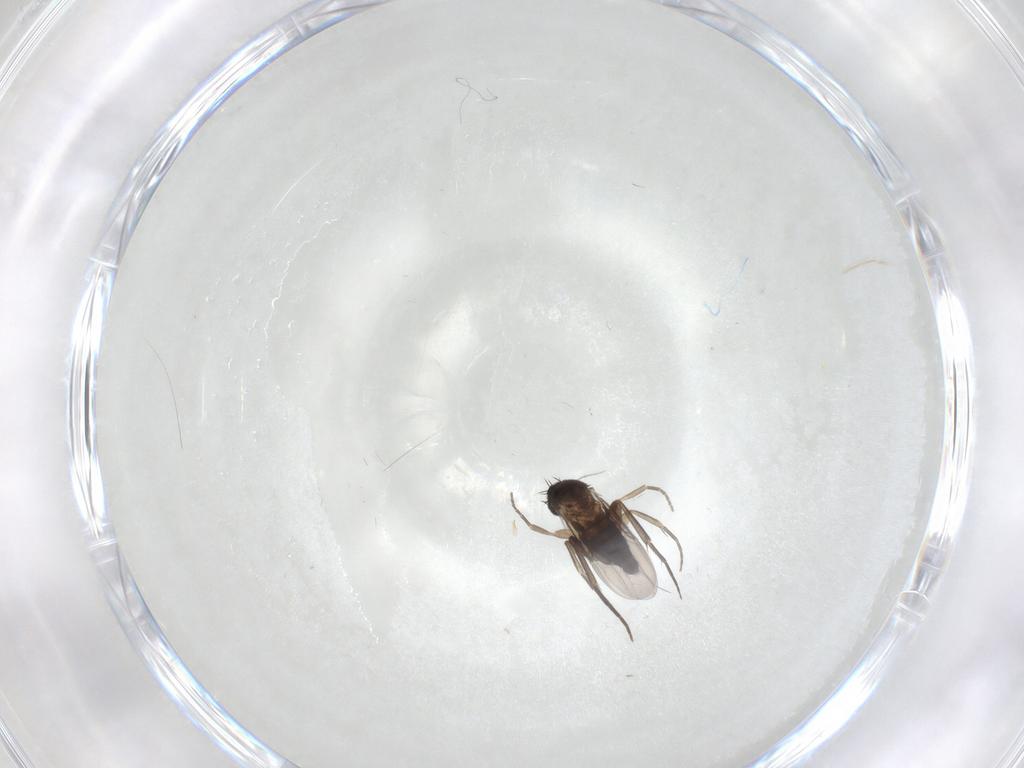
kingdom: Animalia
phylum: Arthropoda
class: Insecta
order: Diptera
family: Phoridae
